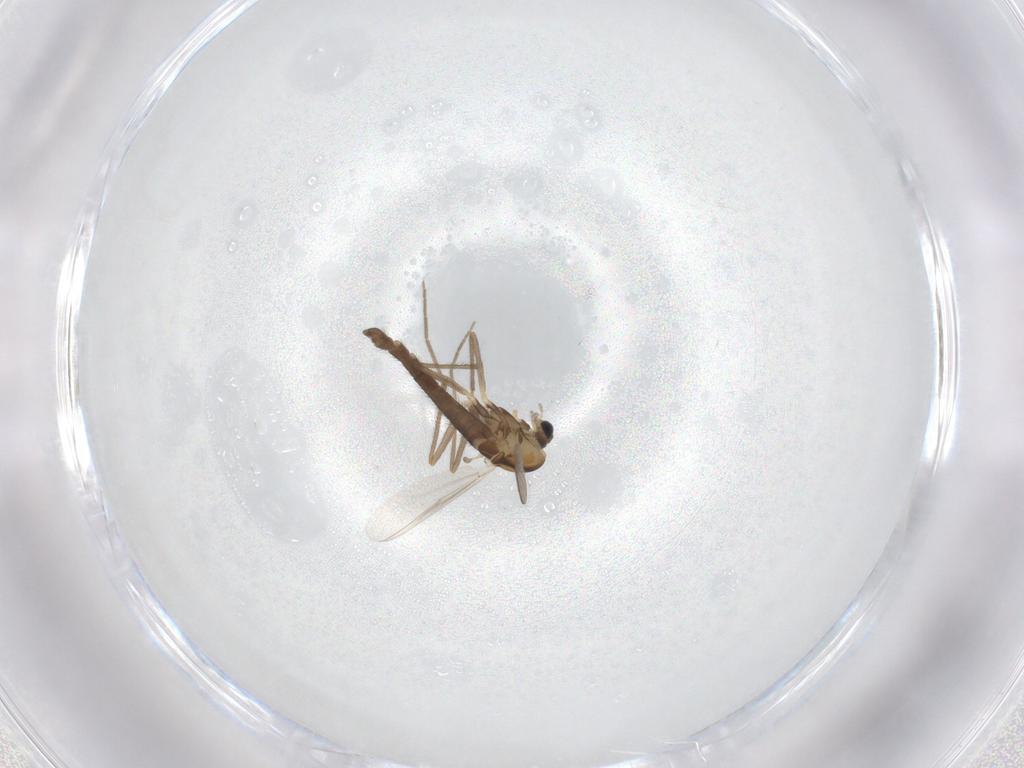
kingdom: Animalia
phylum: Arthropoda
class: Insecta
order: Diptera
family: Chironomidae
